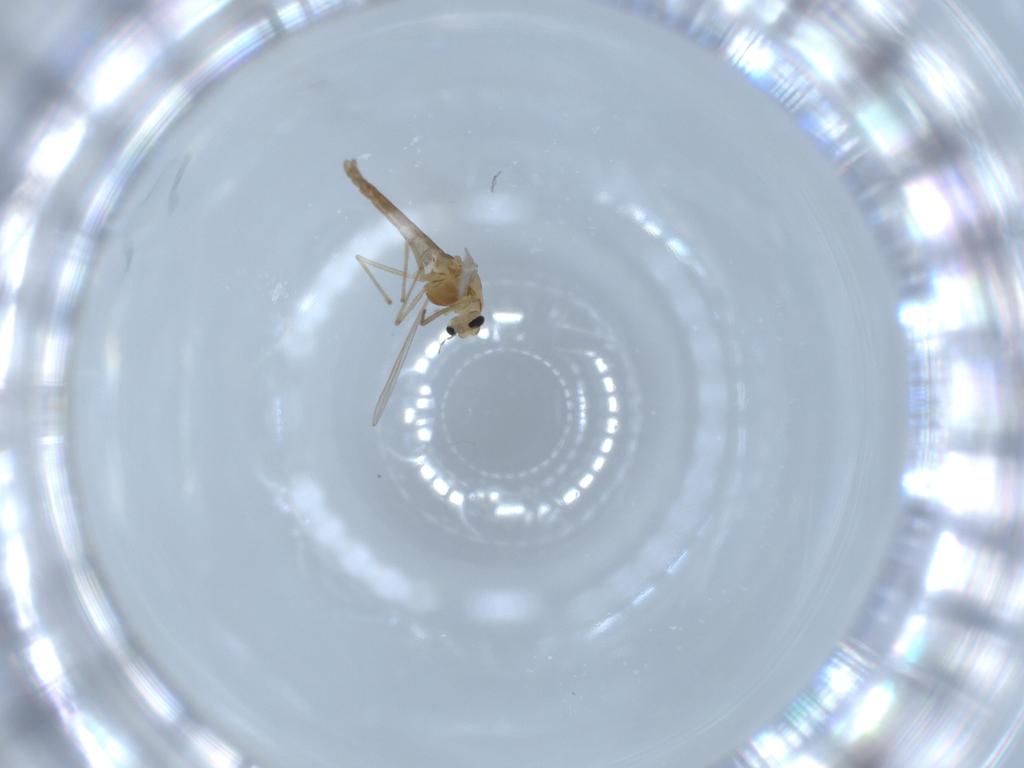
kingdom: Animalia
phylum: Arthropoda
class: Insecta
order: Diptera
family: Chironomidae
